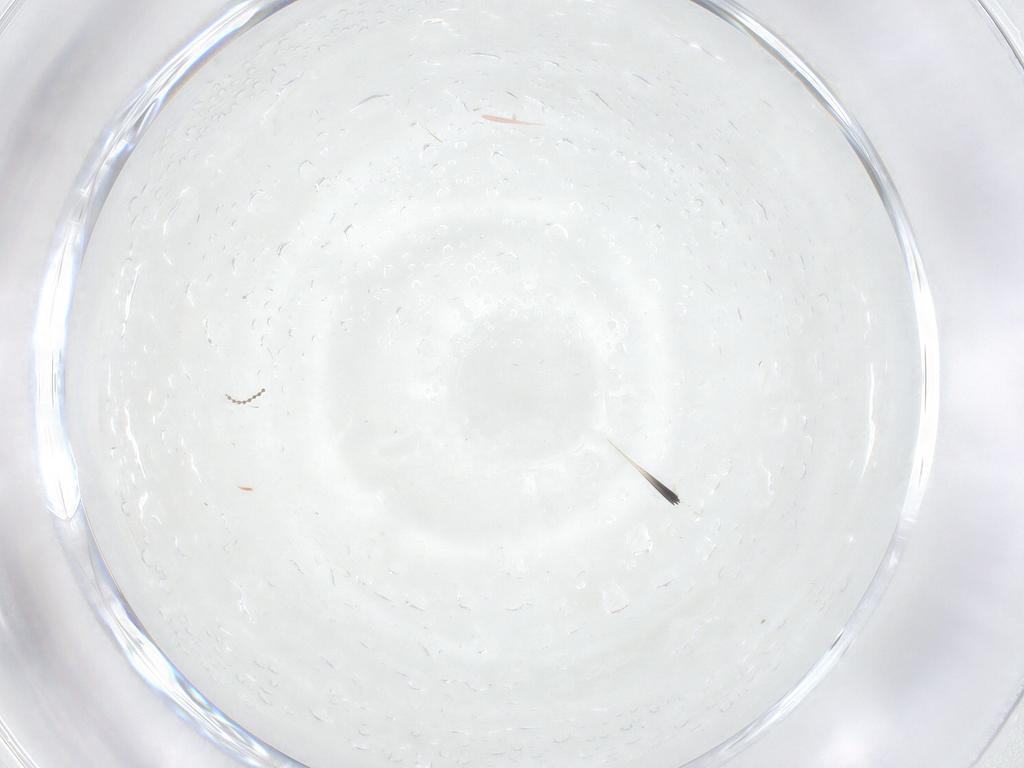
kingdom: Animalia
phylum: Arthropoda
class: Insecta
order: Blattodea
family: Ectobiidae
